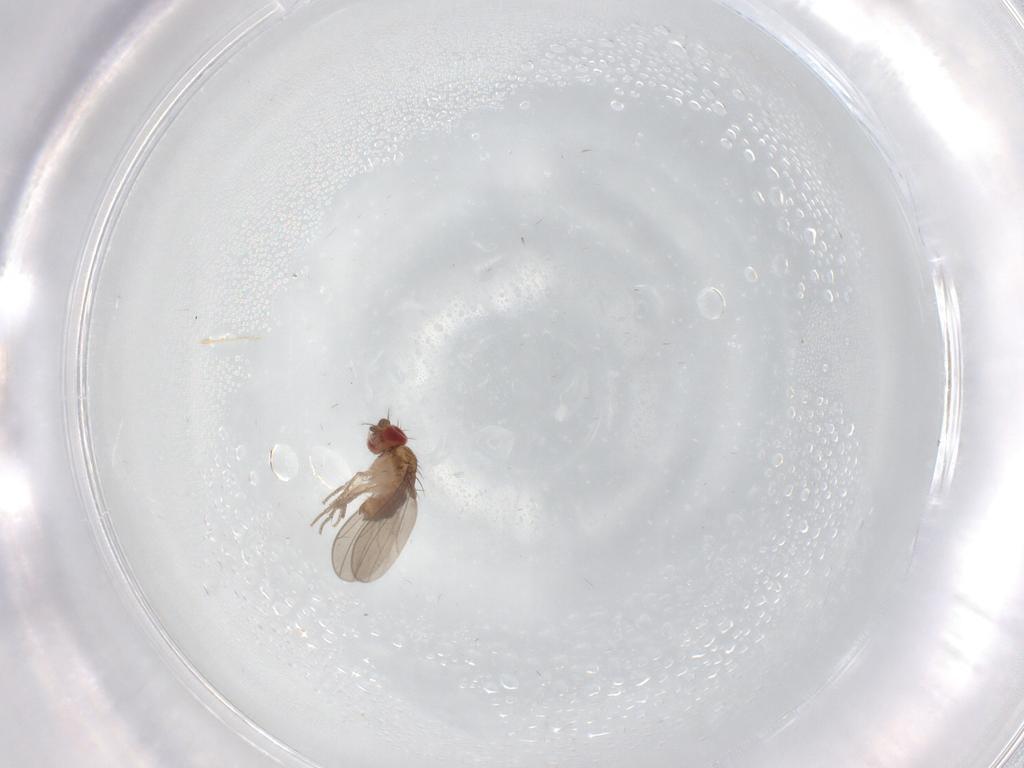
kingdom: Animalia
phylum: Arthropoda
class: Insecta
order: Diptera
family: Drosophilidae
